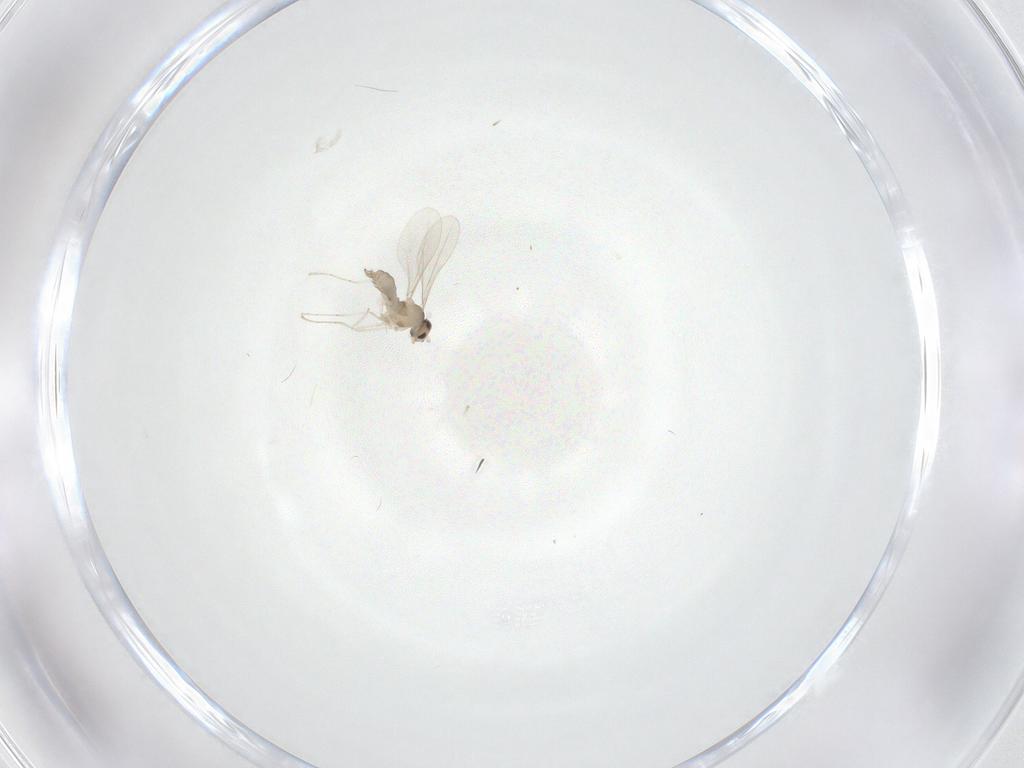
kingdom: Animalia
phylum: Arthropoda
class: Insecta
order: Diptera
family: Cecidomyiidae
